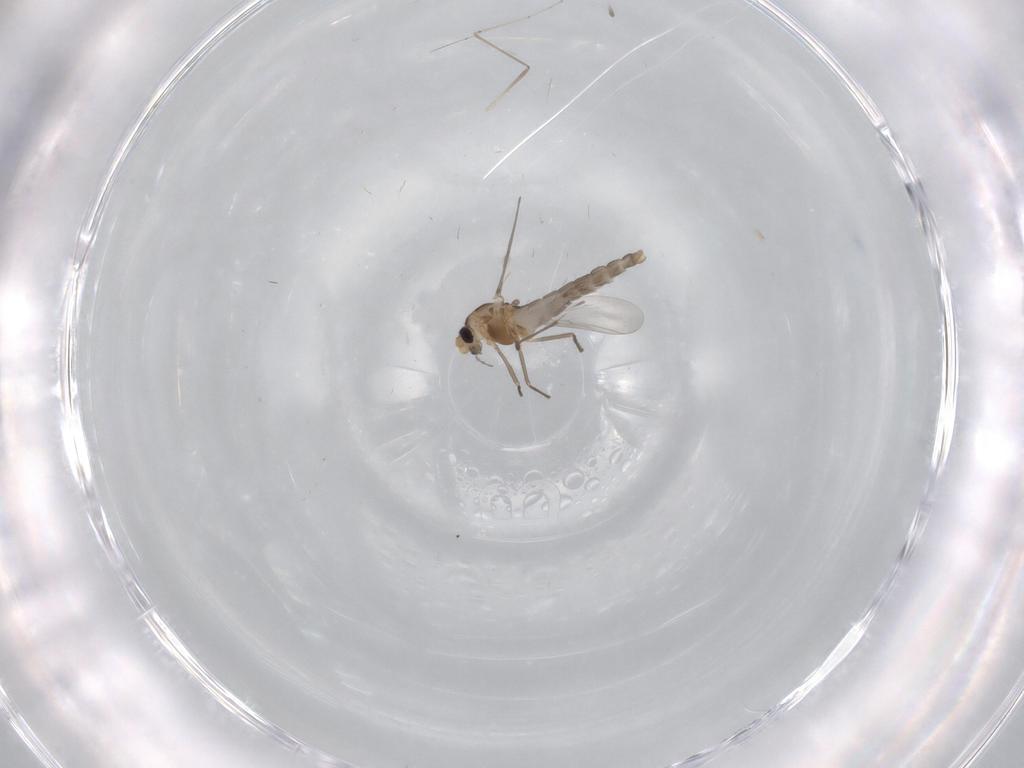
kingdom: Animalia
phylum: Arthropoda
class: Insecta
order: Diptera
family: Chironomidae
